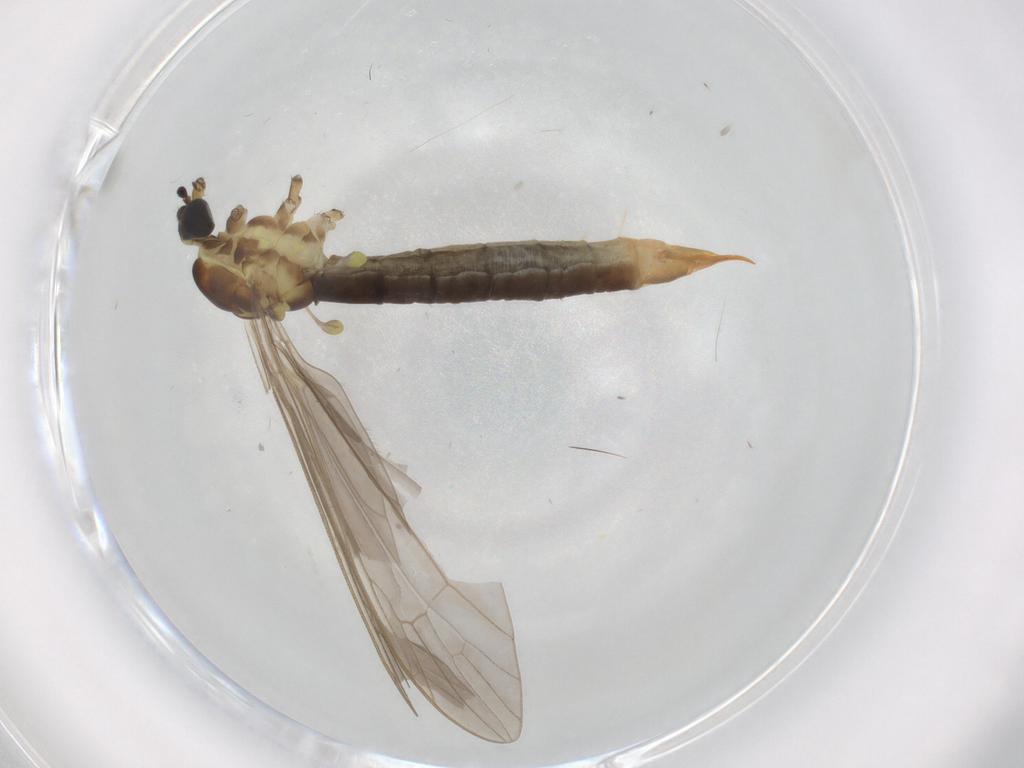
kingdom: Animalia
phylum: Arthropoda
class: Insecta
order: Diptera
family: Limoniidae
